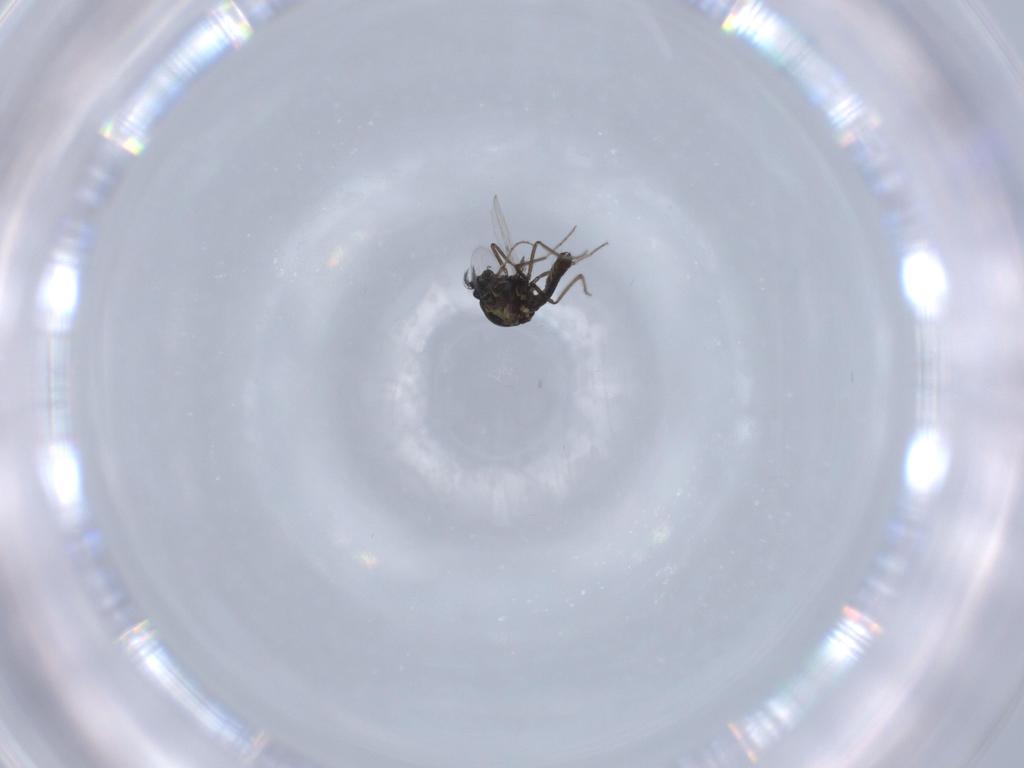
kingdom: Animalia
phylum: Arthropoda
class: Insecta
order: Diptera
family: Ceratopogonidae
